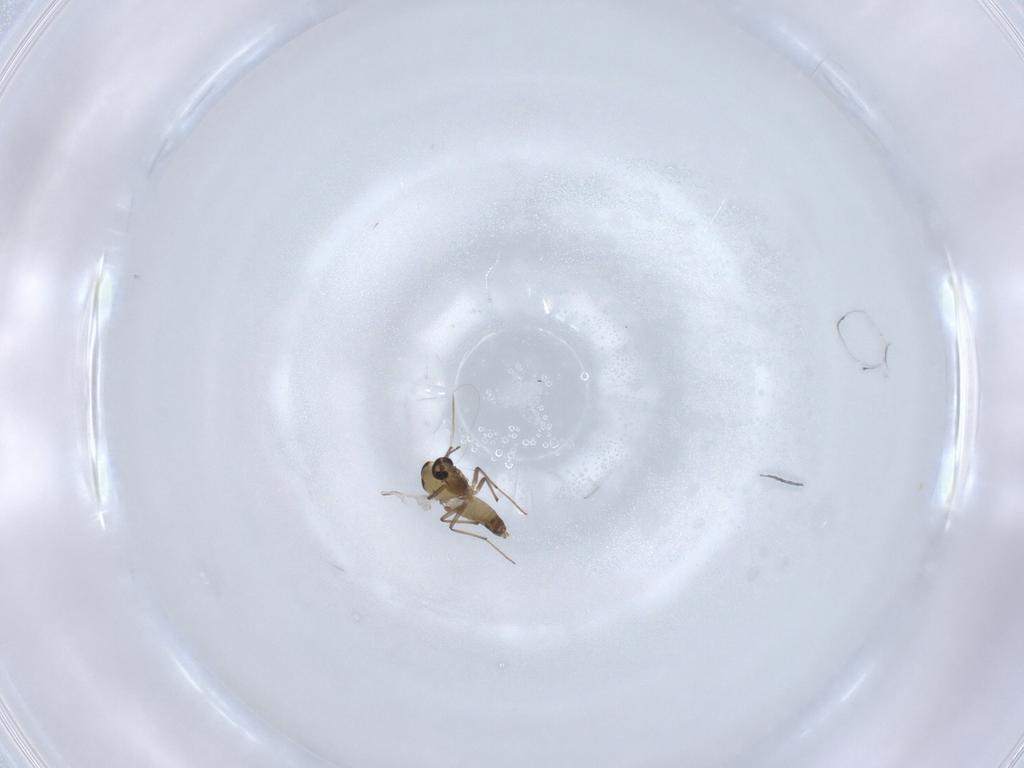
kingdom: Animalia
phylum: Arthropoda
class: Insecta
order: Diptera
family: Chironomidae
